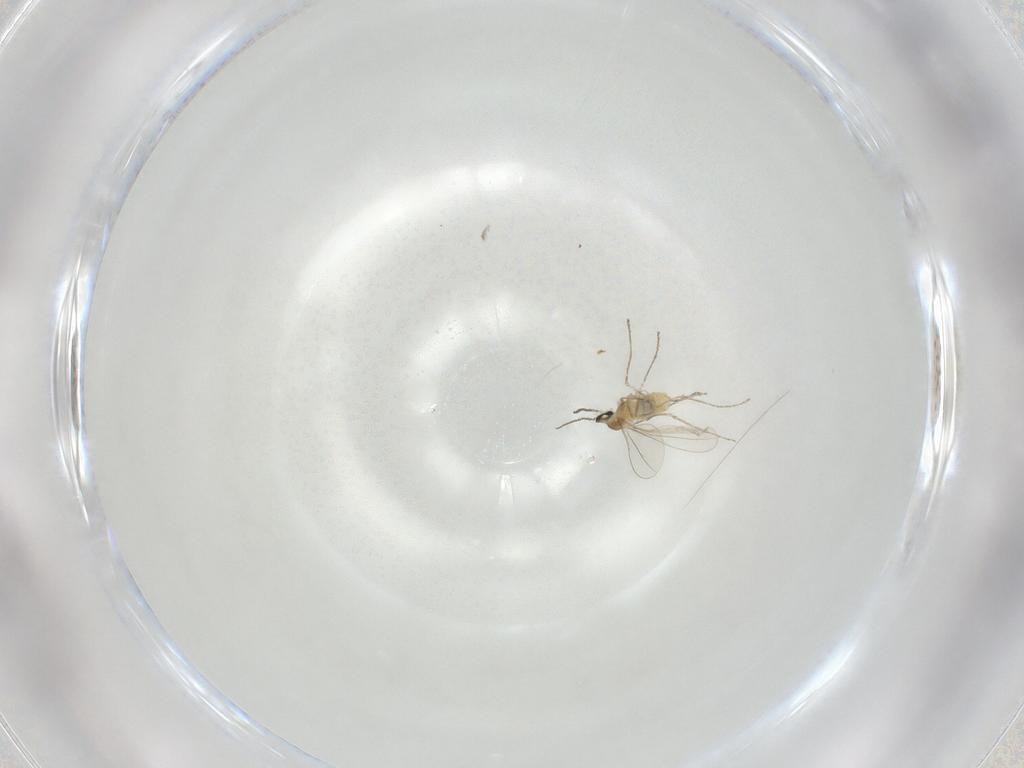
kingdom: Animalia
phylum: Arthropoda
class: Insecta
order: Diptera
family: Cecidomyiidae
